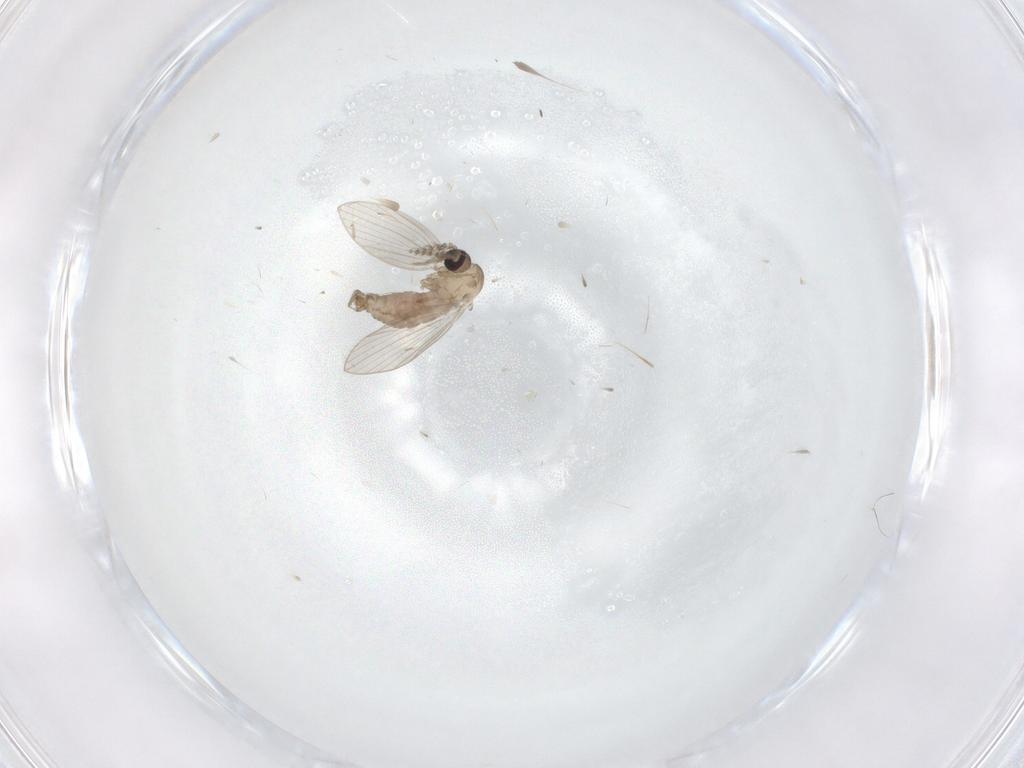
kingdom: Animalia
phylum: Arthropoda
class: Insecta
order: Diptera
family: Psychodidae
